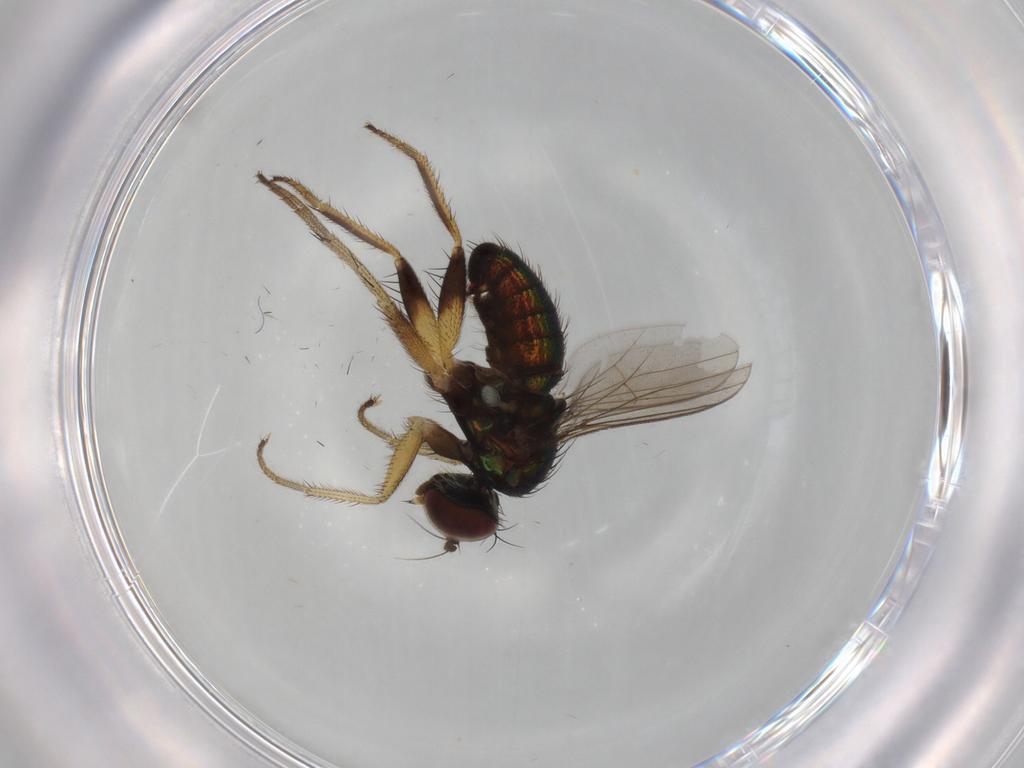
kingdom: Animalia
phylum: Arthropoda
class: Insecta
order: Diptera
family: Dolichopodidae
